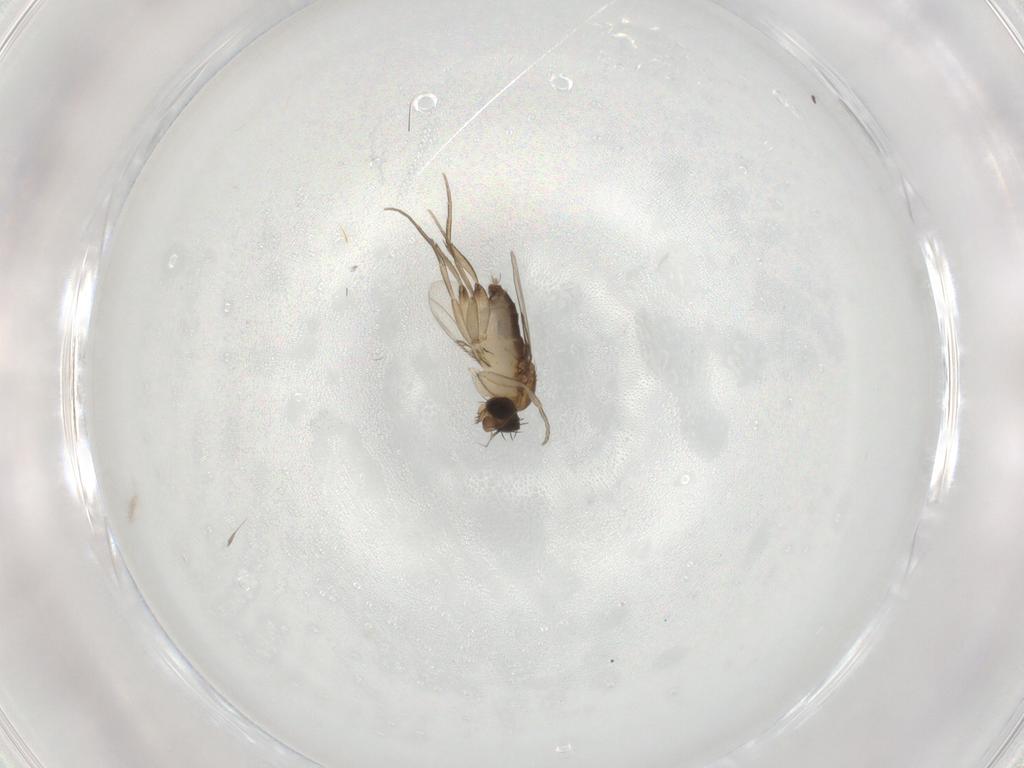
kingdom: Animalia
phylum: Arthropoda
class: Insecta
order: Diptera
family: Phoridae
